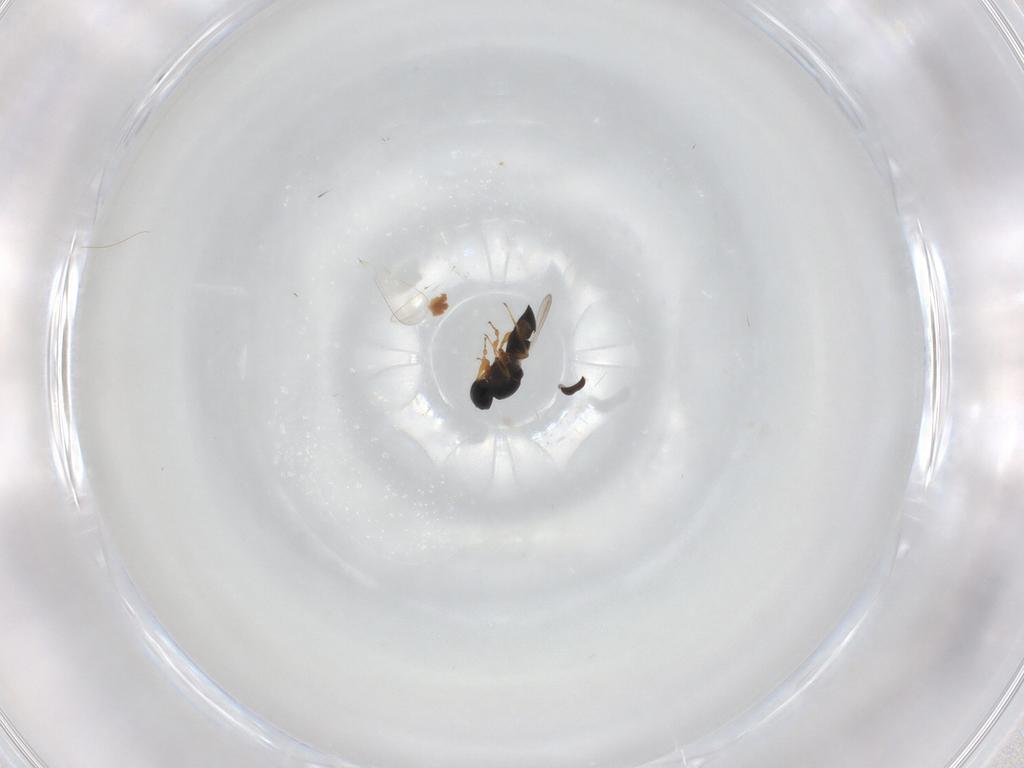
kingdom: Animalia
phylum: Arthropoda
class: Insecta
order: Hymenoptera
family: Platygastridae
